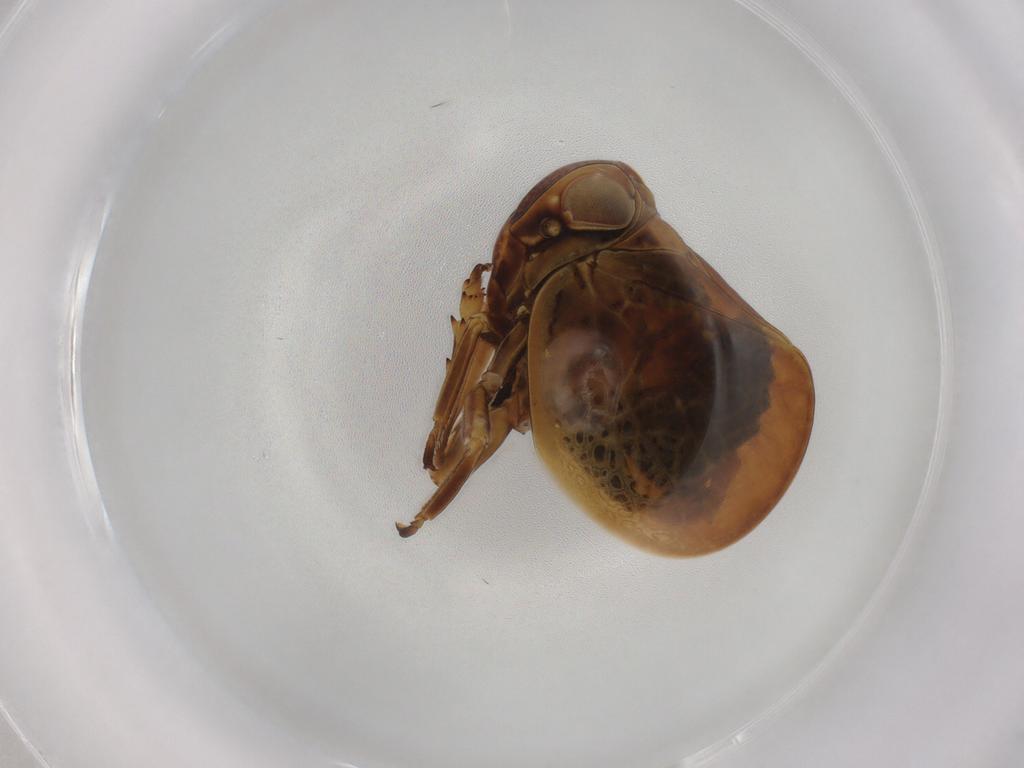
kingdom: Animalia
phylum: Arthropoda
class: Insecta
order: Hemiptera
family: Nogodinidae
